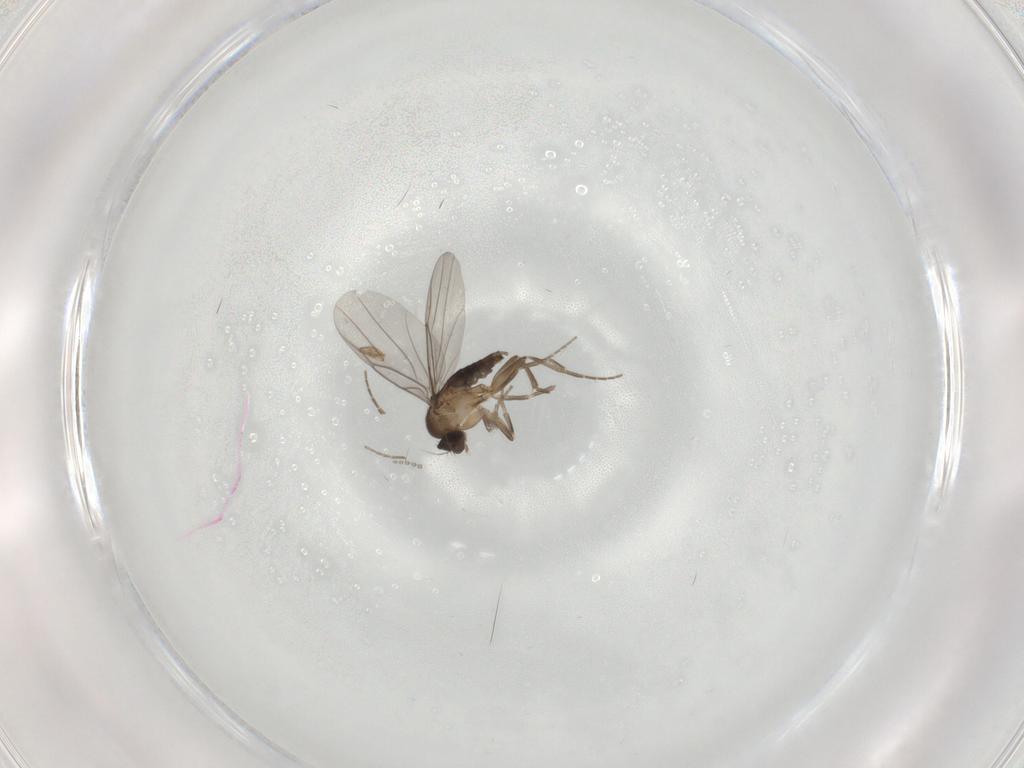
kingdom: Animalia
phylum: Arthropoda
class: Insecta
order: Diptera
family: Cecidomyiidae
